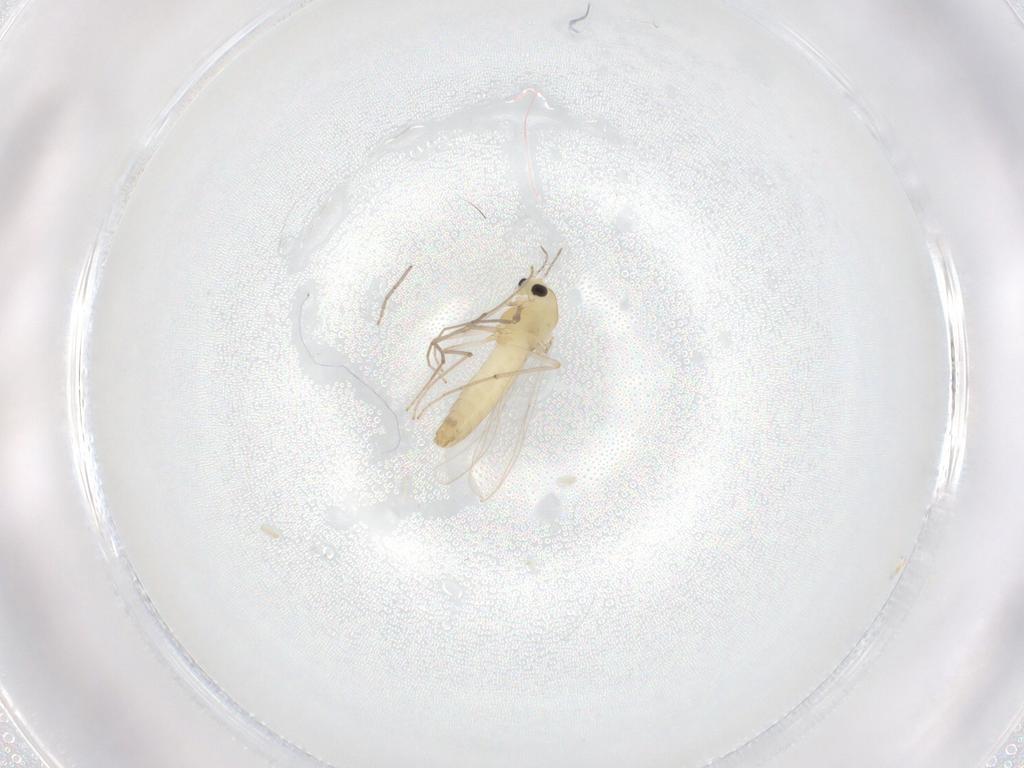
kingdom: Animalia
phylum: Arthropoda
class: Insecta
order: Diptera
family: Chironomidae
